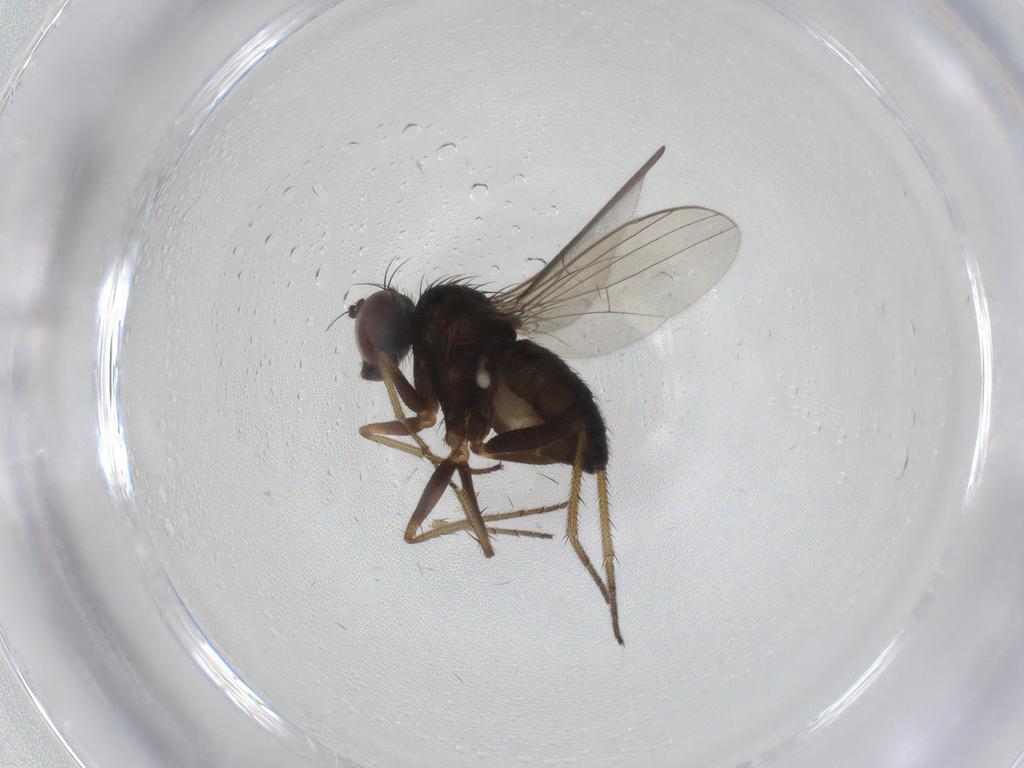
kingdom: Animalia
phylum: Arthropoda
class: Insecta
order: Diptera
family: Dolichopodidae
